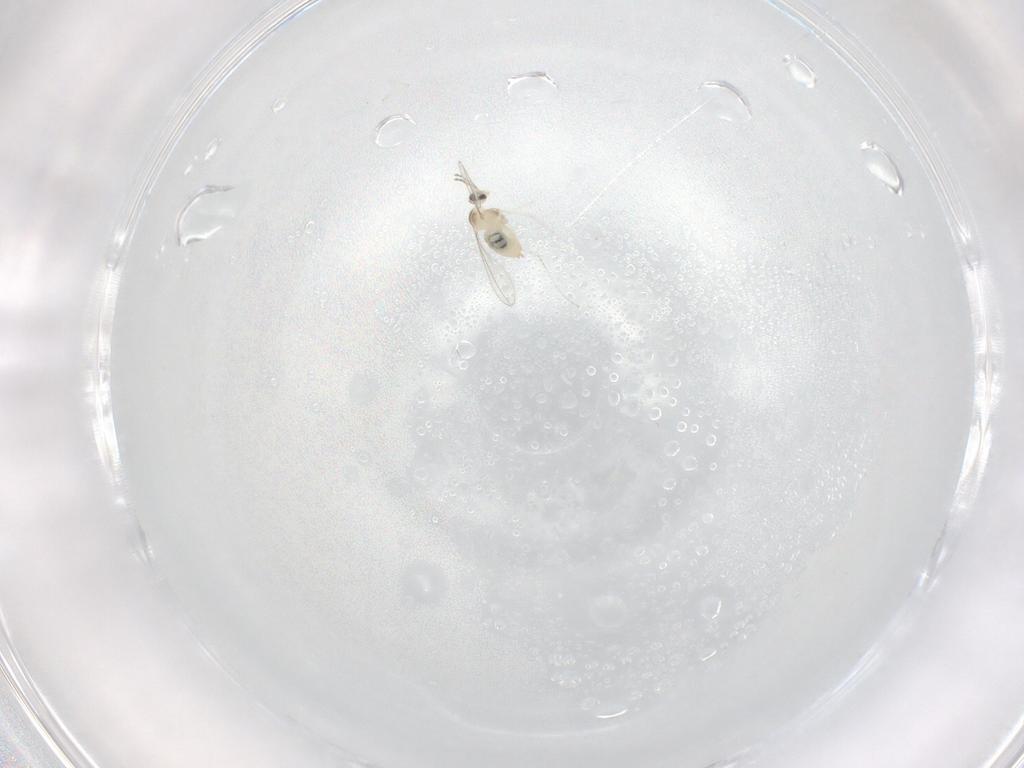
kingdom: Animalia
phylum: Arthropoda
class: Insecta
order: Diptera
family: Cecidomyiidae
